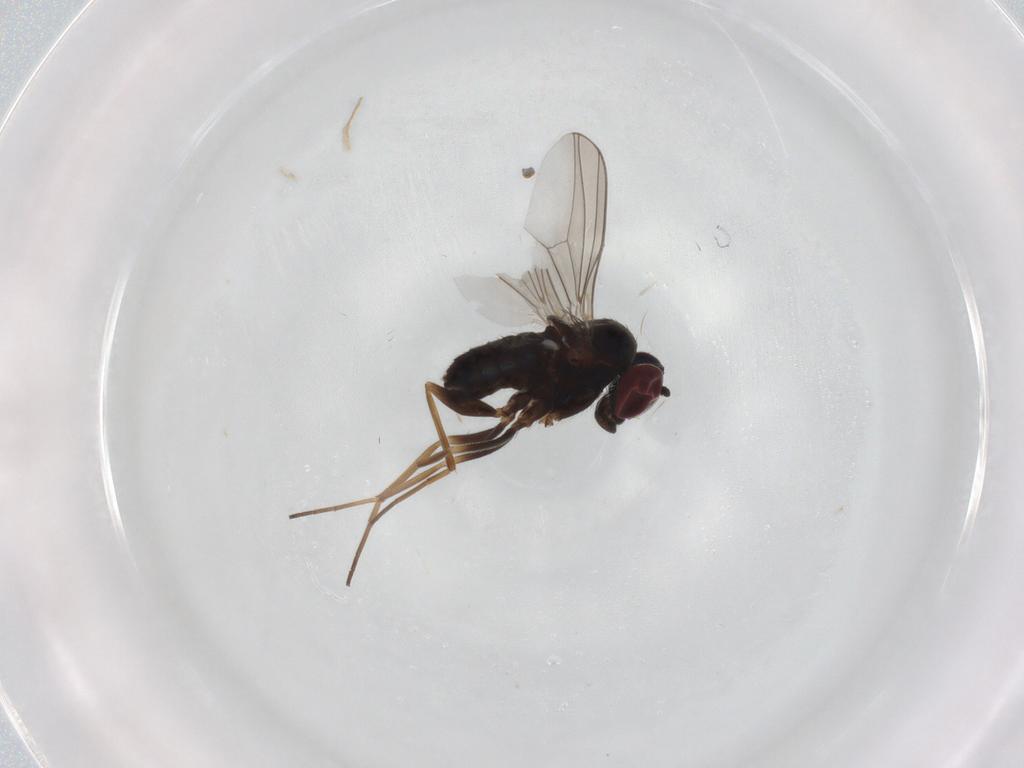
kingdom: Animalia
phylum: Arthropoda
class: Insecta
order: Diptera
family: Dolichopodidae
